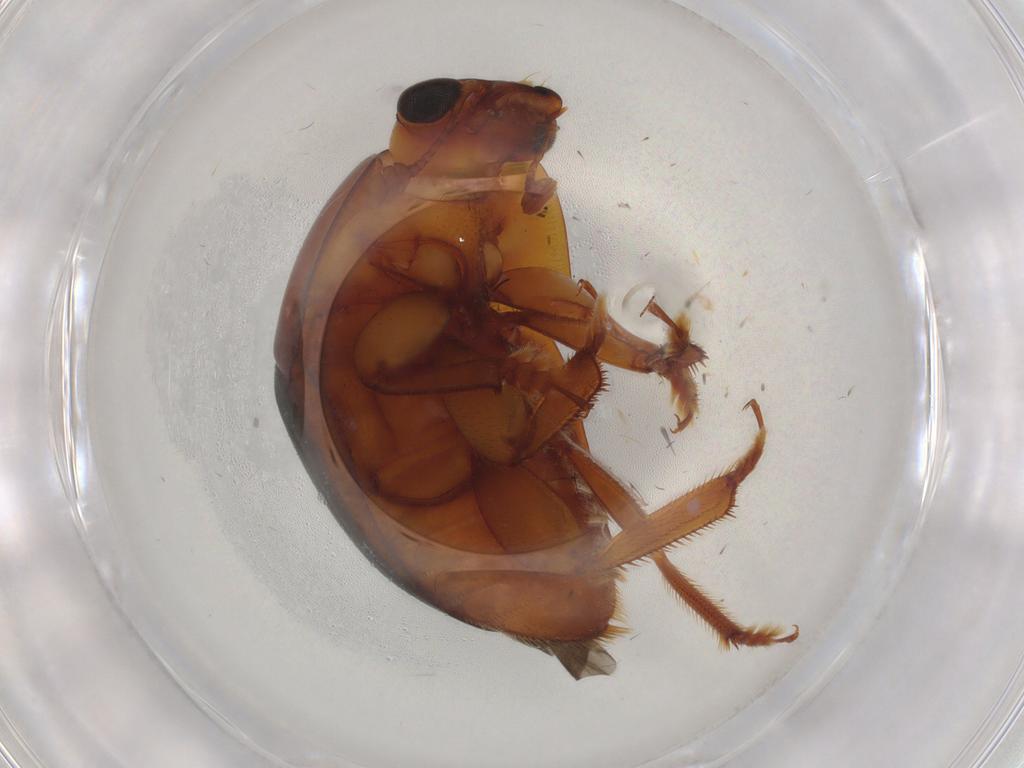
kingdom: Animalia
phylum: Arthropoda
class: Insecta
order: Coleoptera
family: Nitidulidae
